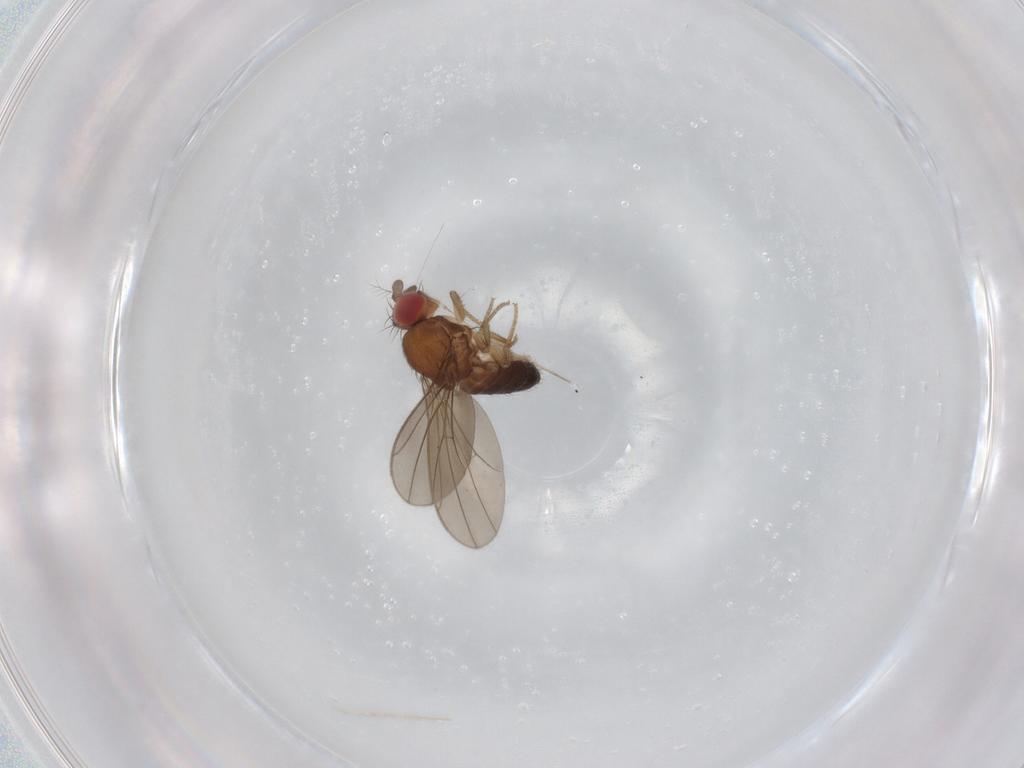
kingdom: Animalia
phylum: Arthropoda
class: Insecta
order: Diptera
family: Drosophilidae
